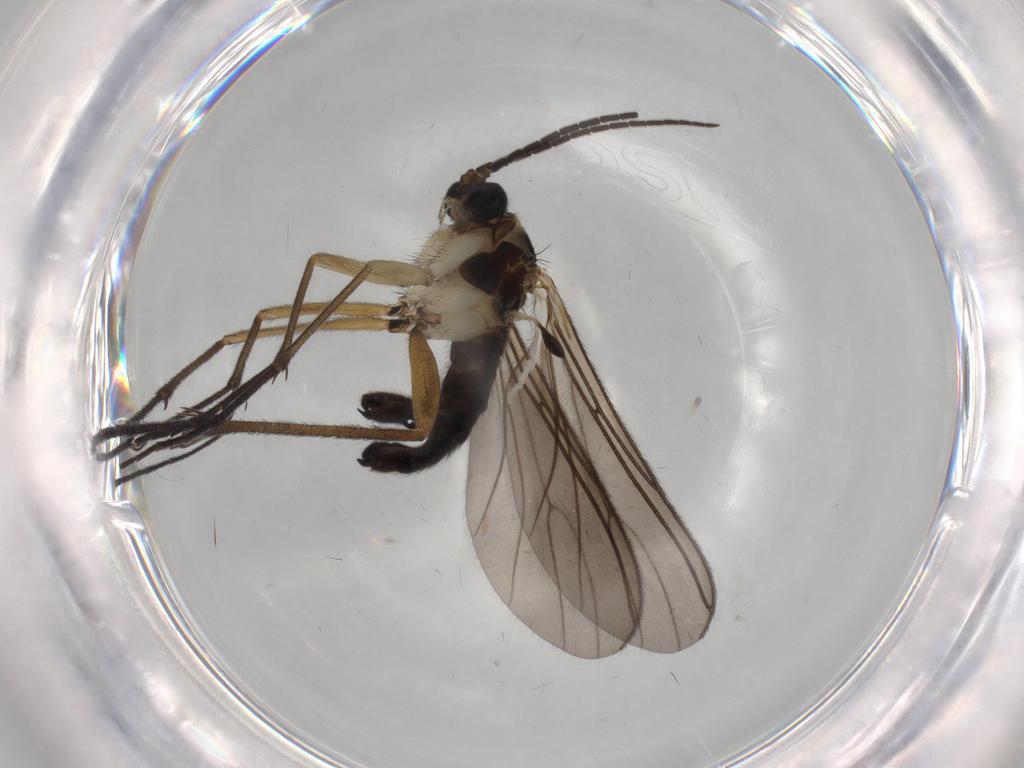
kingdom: Animalia
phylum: Arthropoda
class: Insecta
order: Diptera
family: Sciaridae
